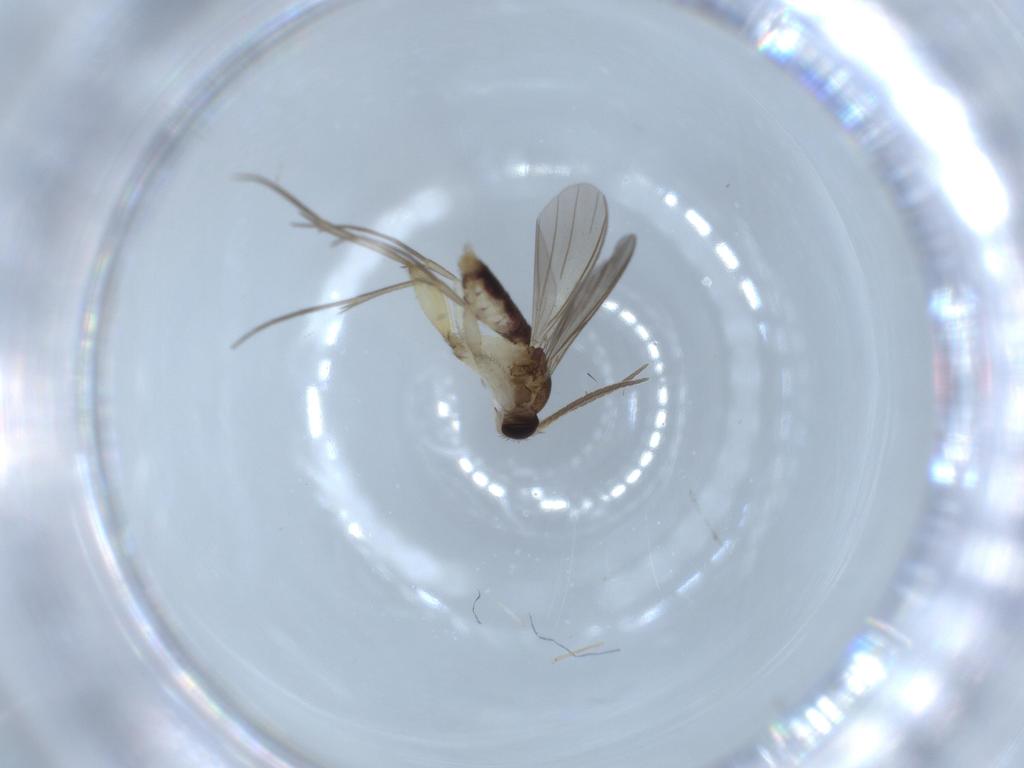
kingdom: Animalia
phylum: Arthropoda
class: Insecta
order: Diptera
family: Mycetophilidae
